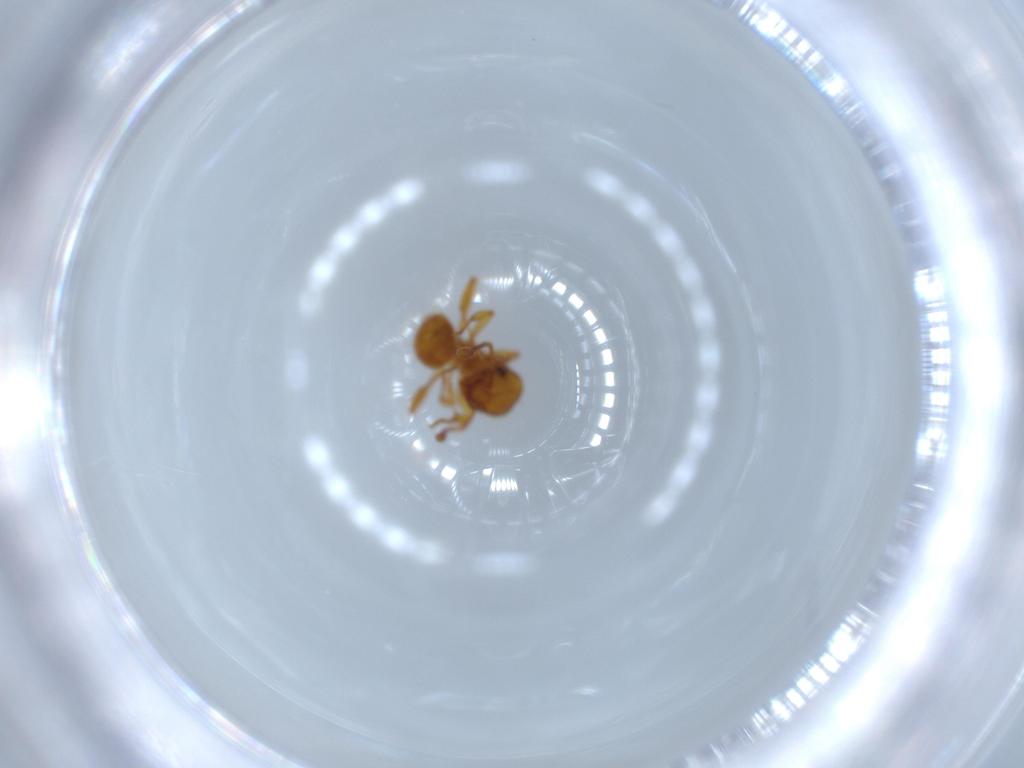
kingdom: Animalia
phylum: Arthropoda
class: Insecta
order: Hymenoptera
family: Formicidae
